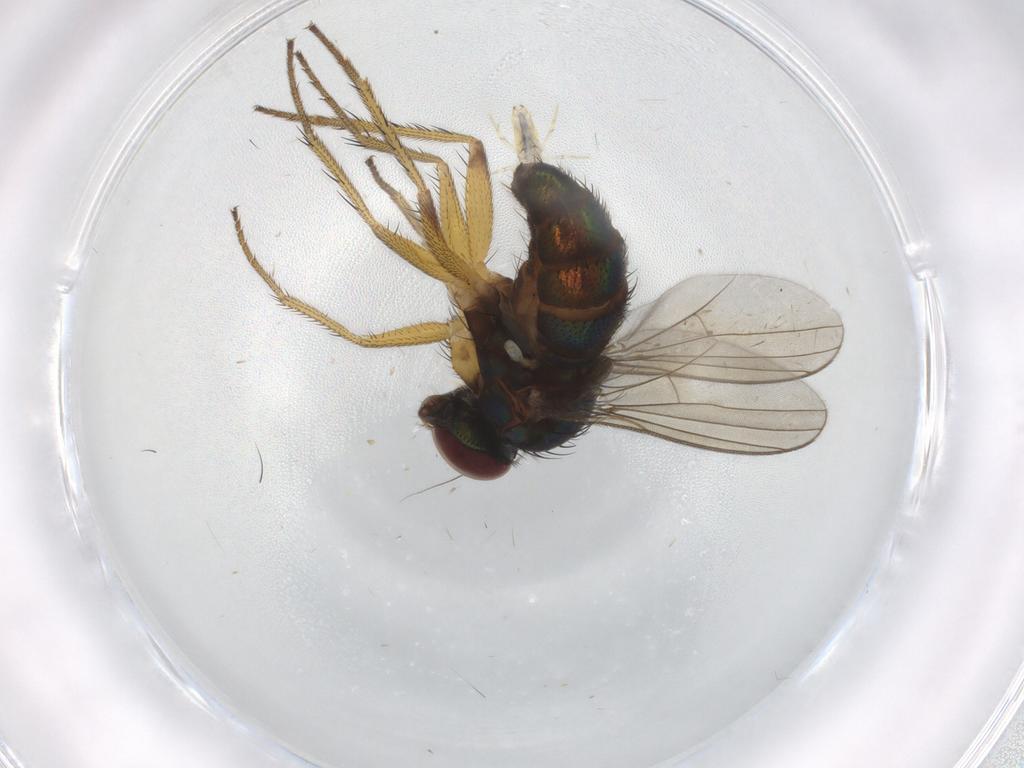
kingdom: Animalia
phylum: Arthropoda
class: Insecta
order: Diptera
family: Dolichopodidae
